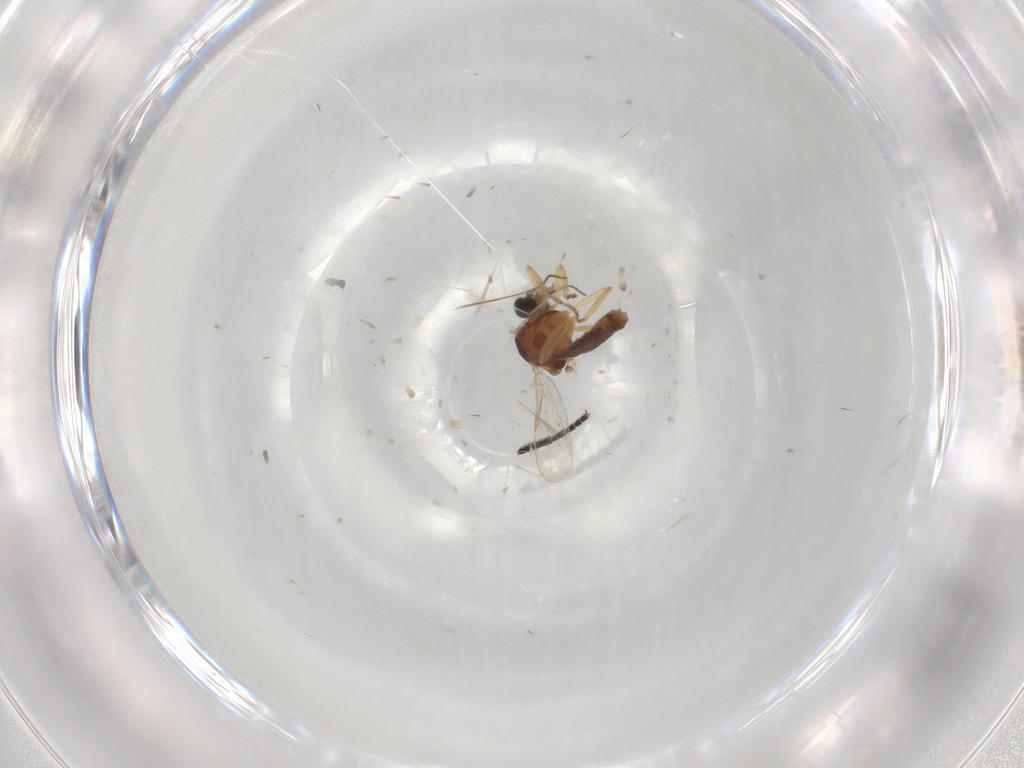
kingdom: Animalia
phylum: Arthropoda
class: Insecta
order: Diptera
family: Ceratopogonidae
